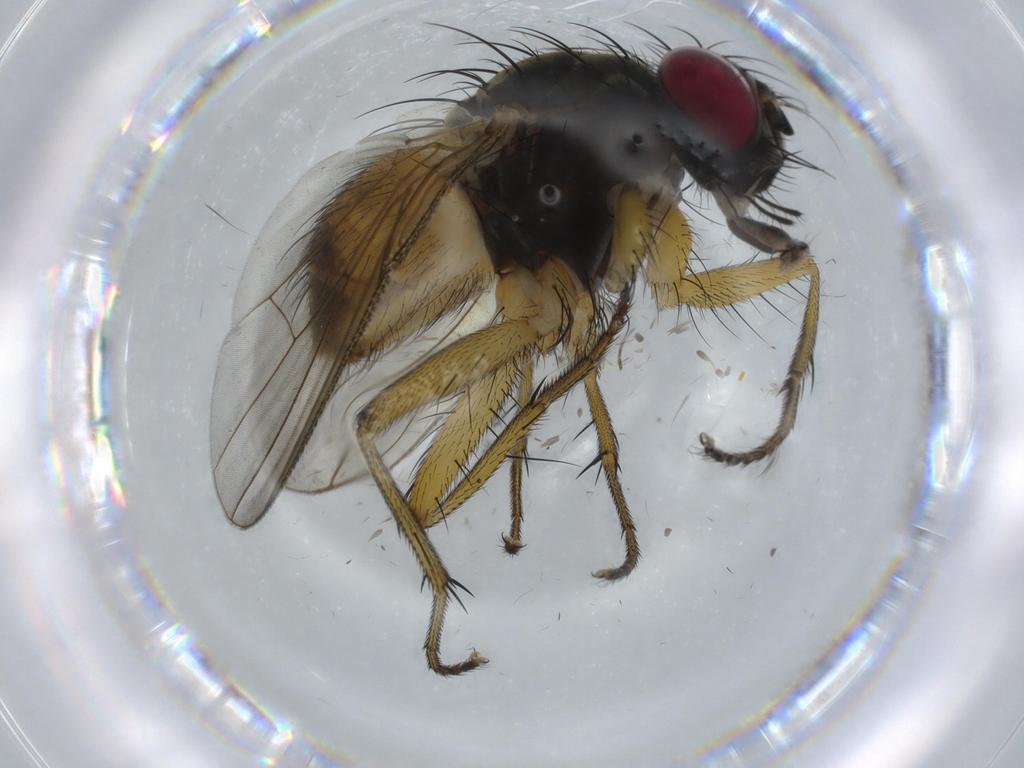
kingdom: Animalia
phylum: Arthropoda
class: Insecta
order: Diptera
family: Muscidae
